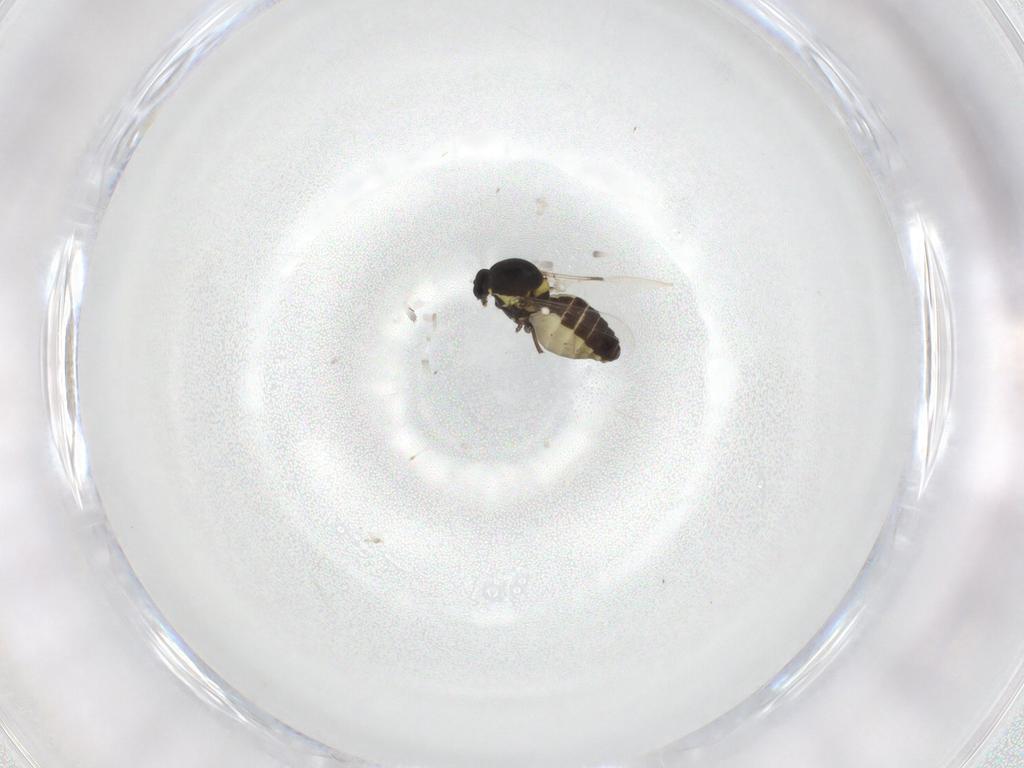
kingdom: Animalia
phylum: Arthropoda
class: Insecta
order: Diptera
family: Ceratopogonidae
